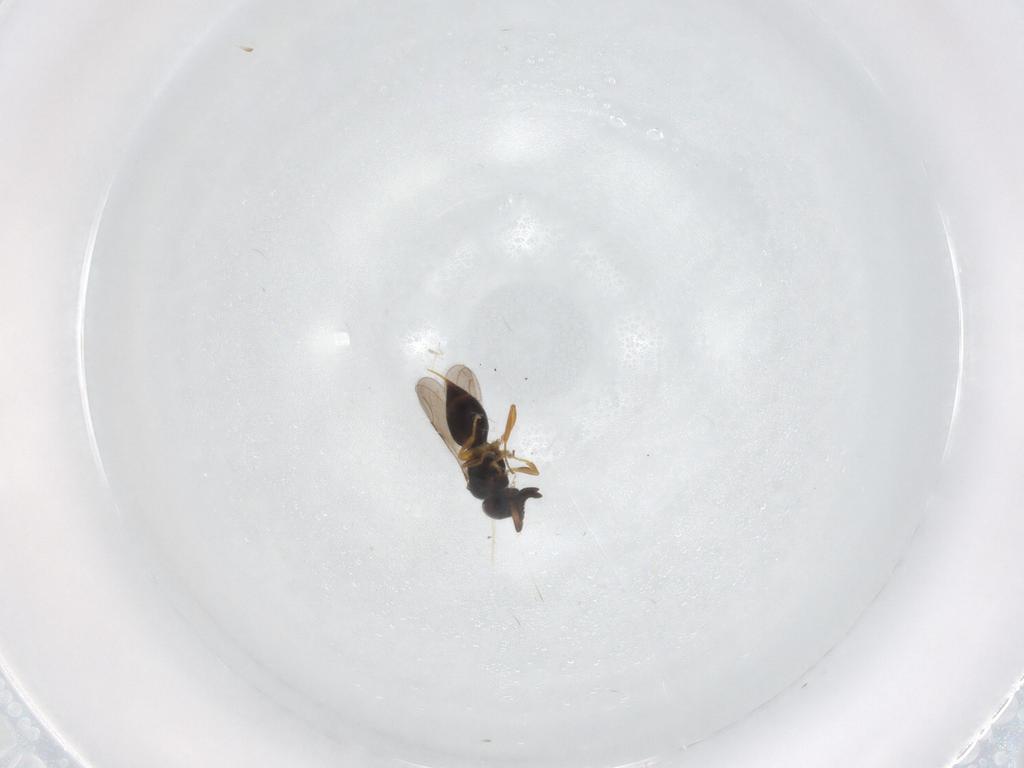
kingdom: Animalia
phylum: Arthropoda
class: Insecta
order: Hymenoptera
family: Diapriidae
